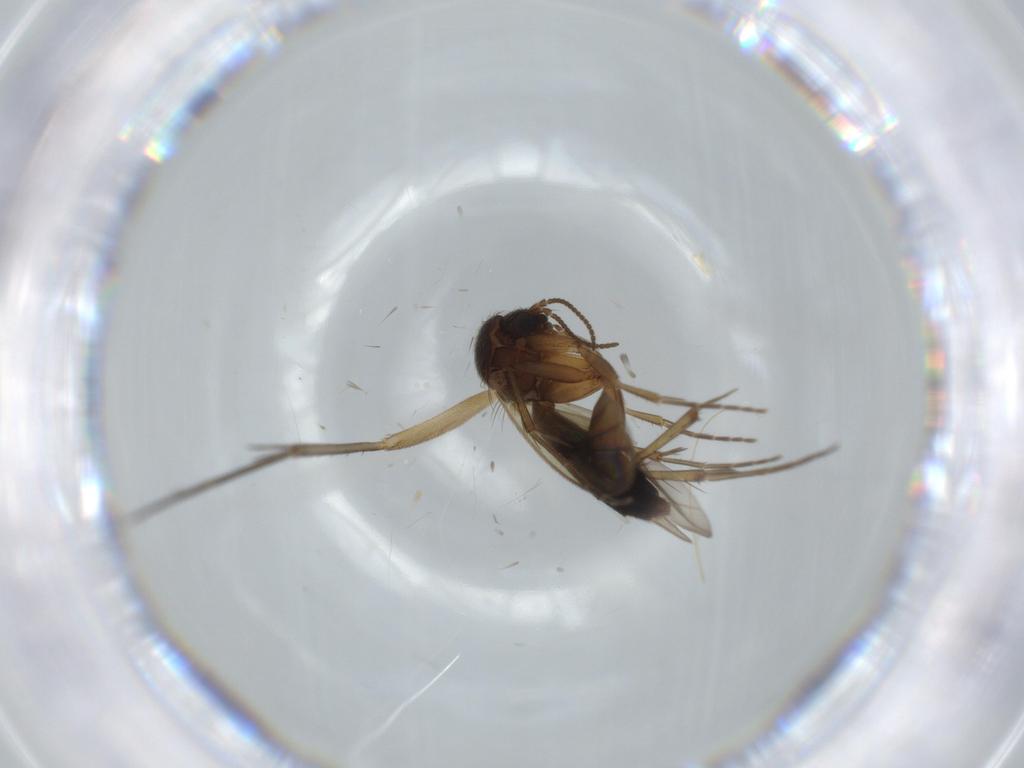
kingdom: Animalia
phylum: Arthropoda
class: Insecta
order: Diptera
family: Muscidae
